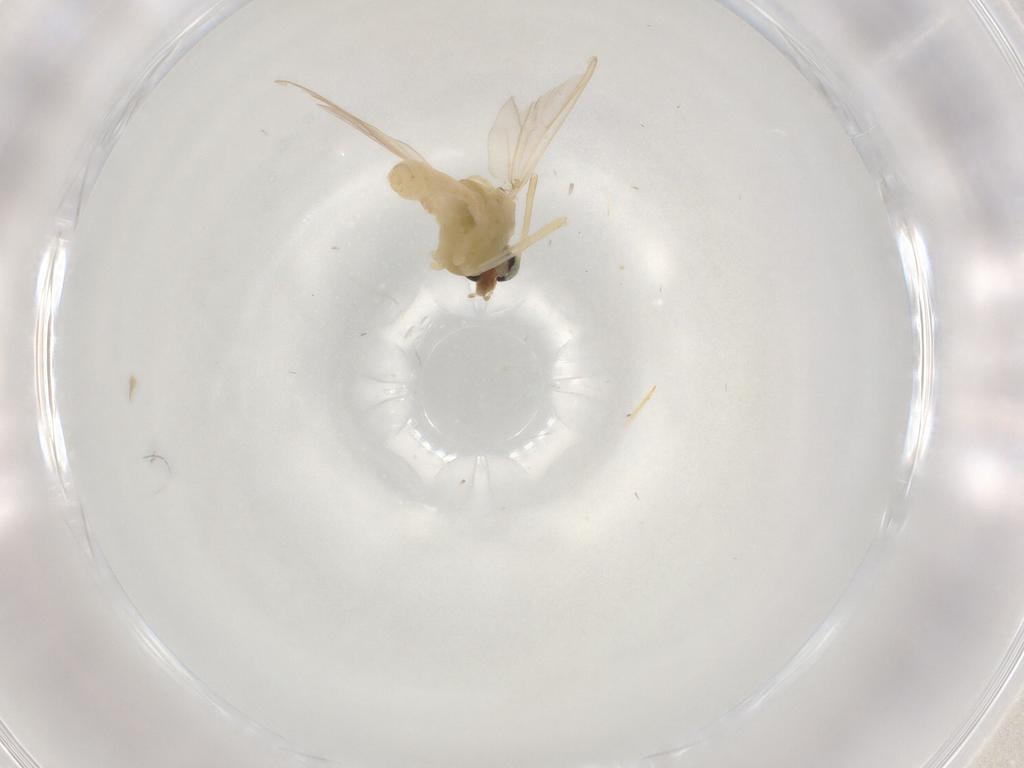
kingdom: Animalia
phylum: Arthropoda
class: Insecta
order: Diptera
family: Chironomidae
